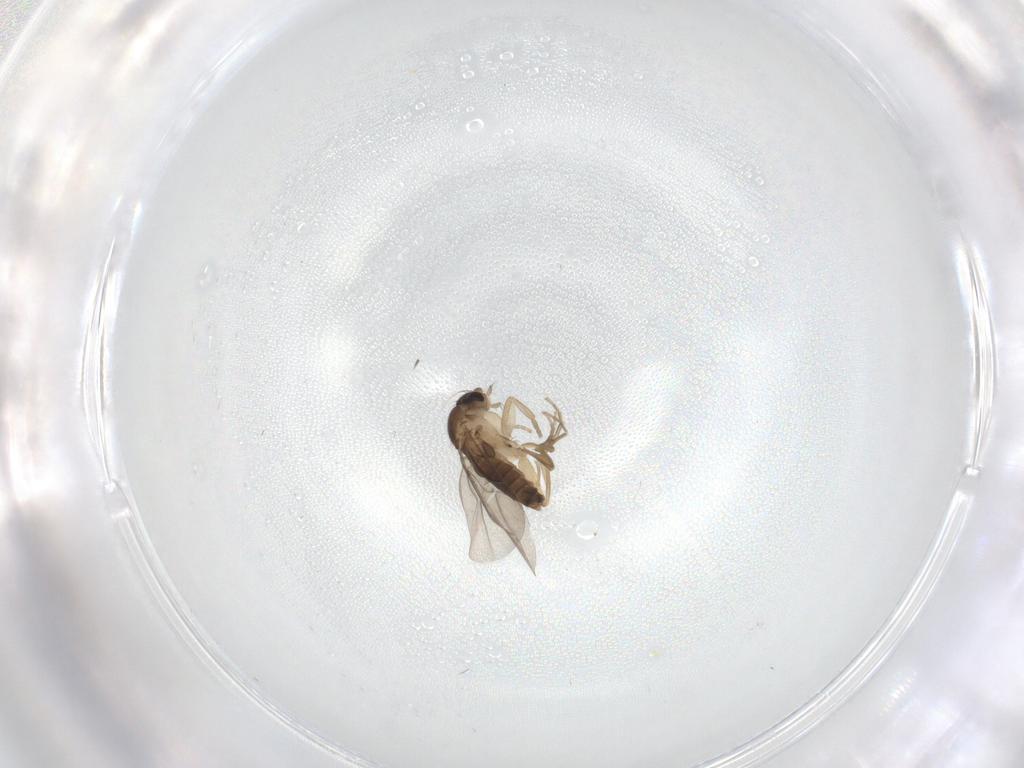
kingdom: Animalia
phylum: Arthropoda
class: Insecta
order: Diptera
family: Phoridae
